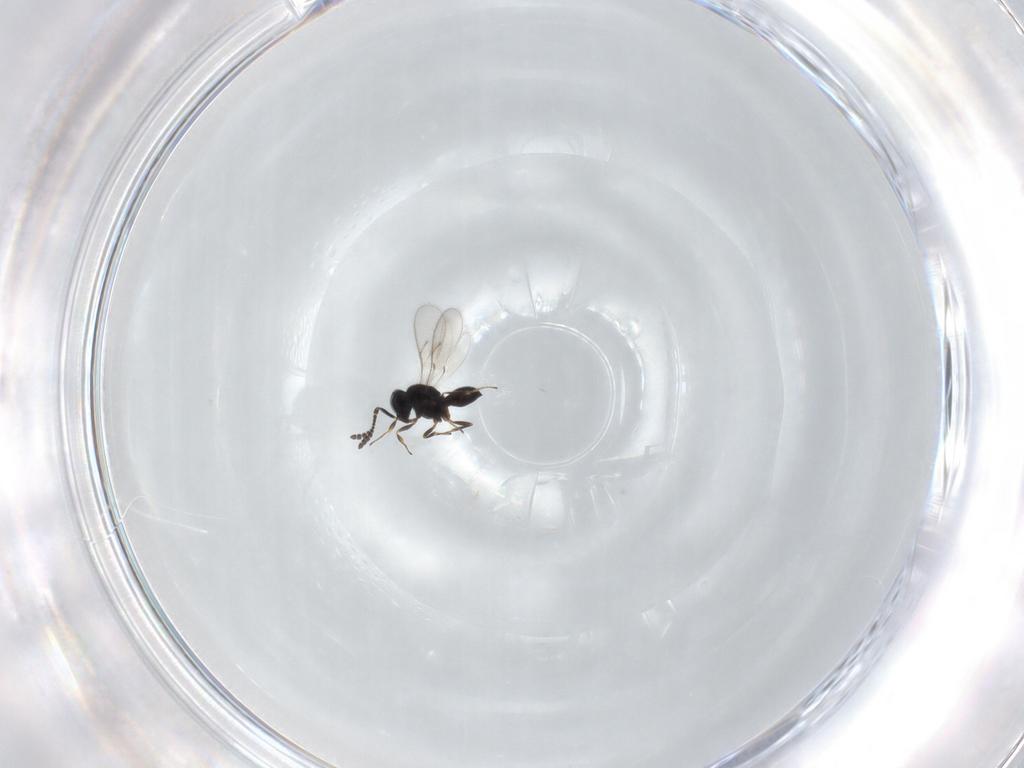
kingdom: Animalia
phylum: Arthropoda
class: Insecta
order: Hymenoptera
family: Scelionidae
